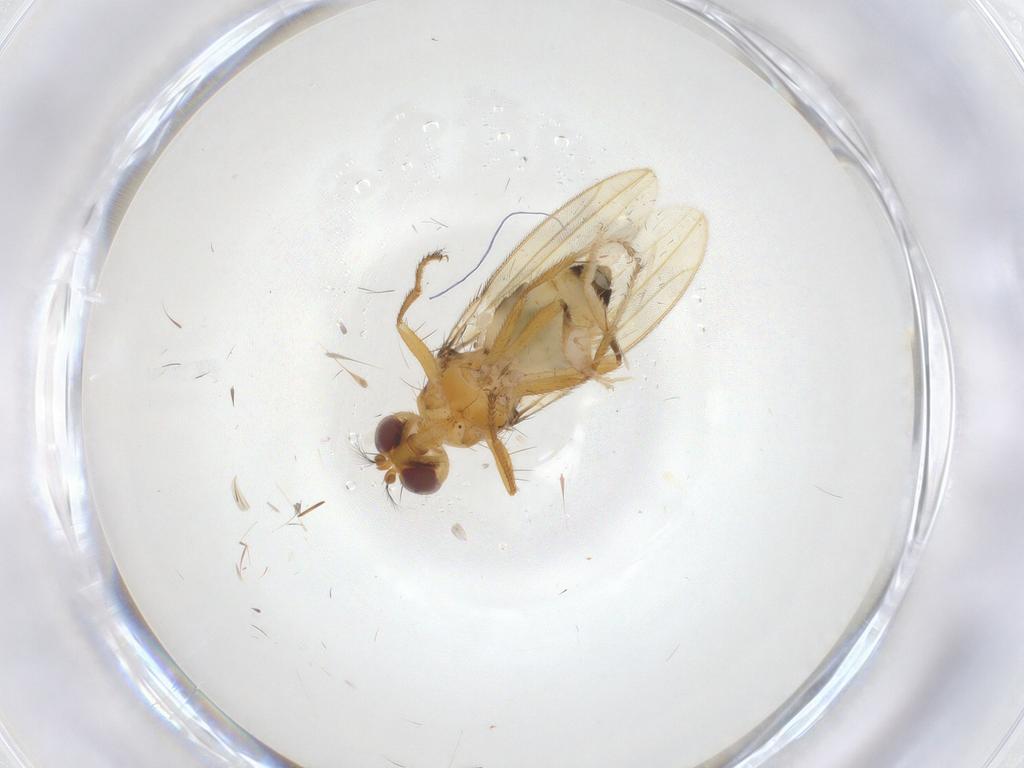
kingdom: Animalia
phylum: Arthropoda
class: Insecta
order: Diptera
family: Periscelididae
